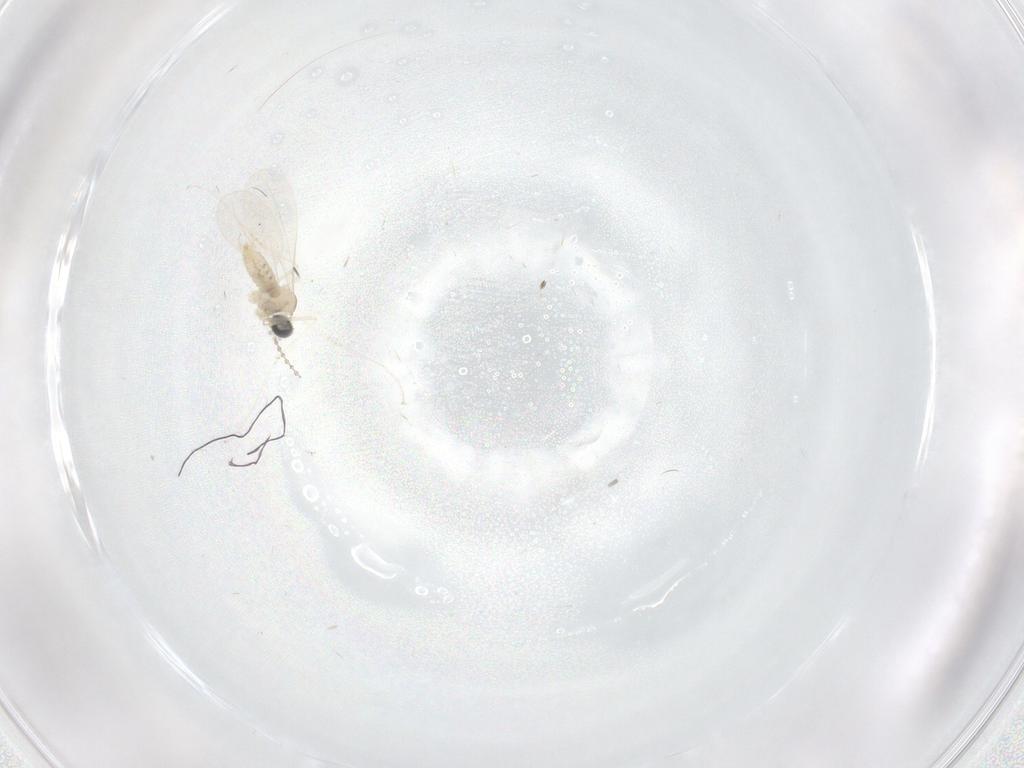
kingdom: Animalia
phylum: Arthropoda
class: Insecta
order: Diptera
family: Cecidomyiidae
